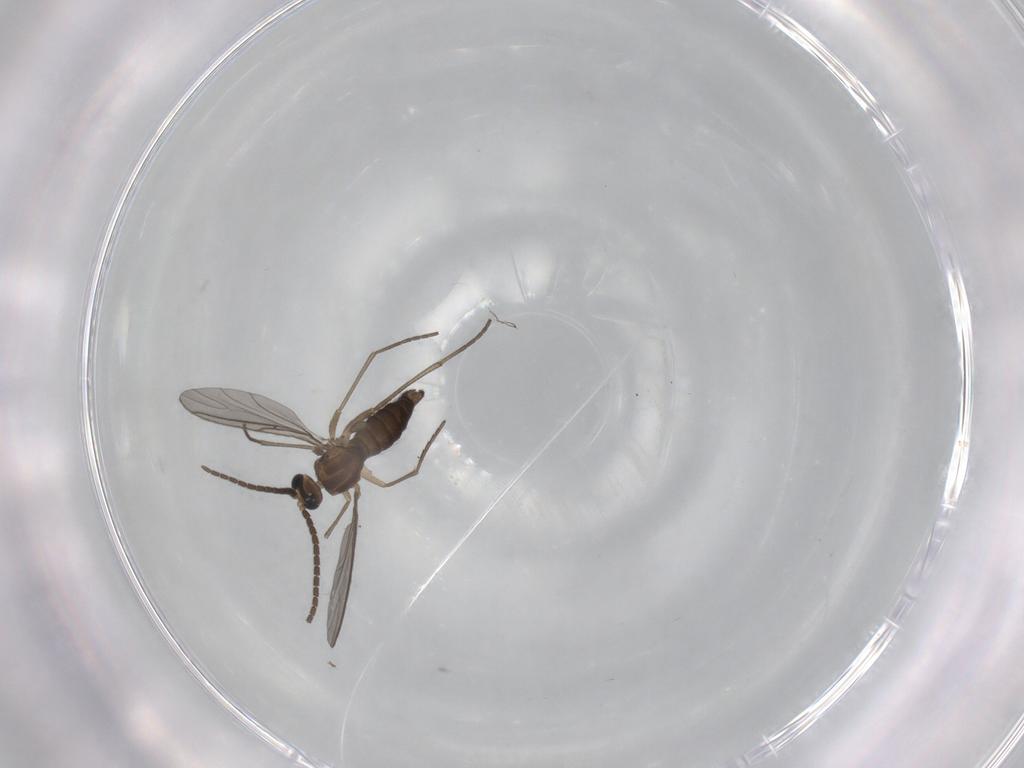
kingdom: Animalia
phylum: Arthropoda
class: Insecta
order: Diptera
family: Sciaridae
